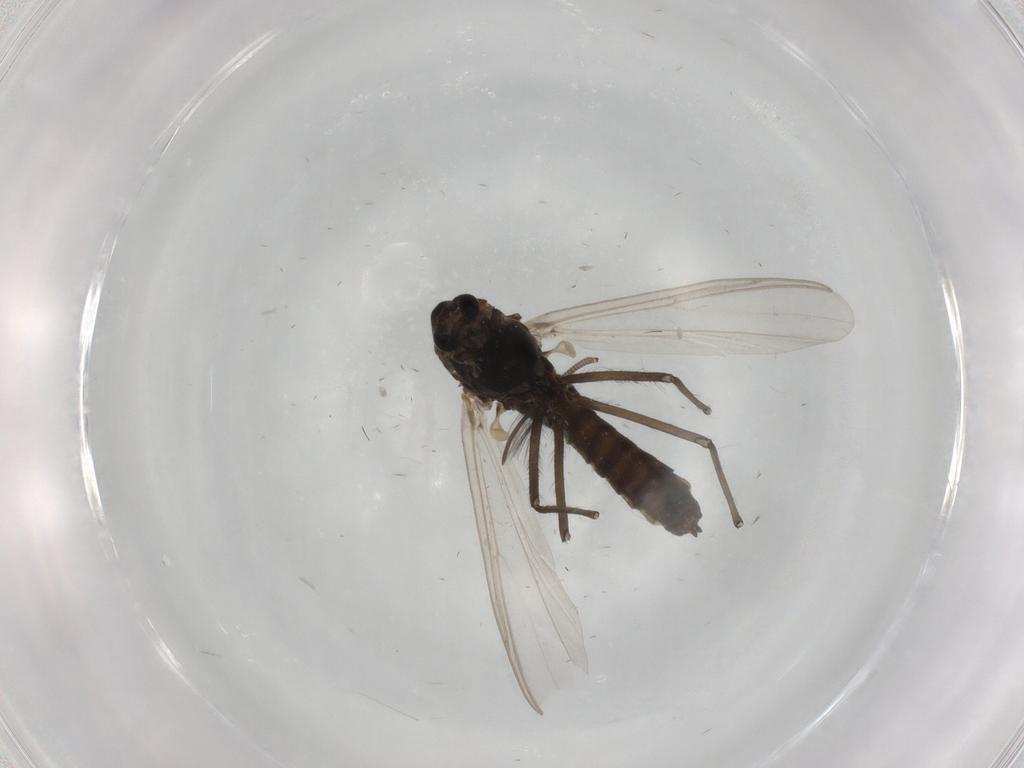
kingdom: Animalia
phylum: Arthropoda
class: Insecta
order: Diptera
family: Chironomidae
